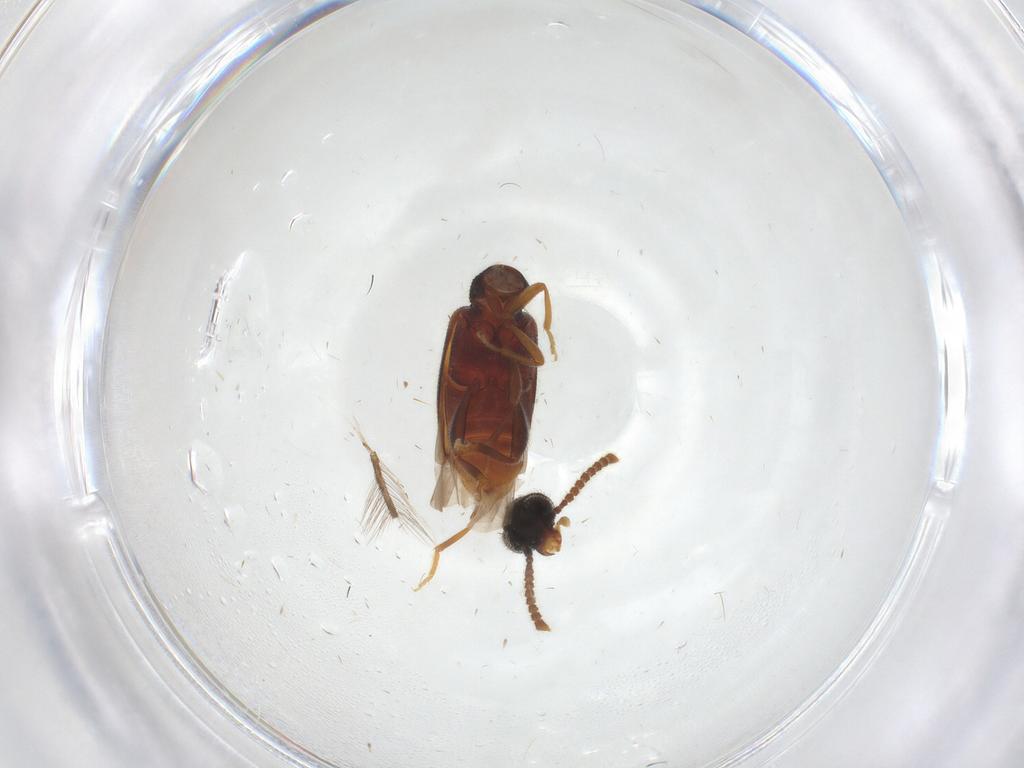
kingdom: Animalia
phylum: Arthropoda
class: Insecta
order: Coleoptera
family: Aderidae
